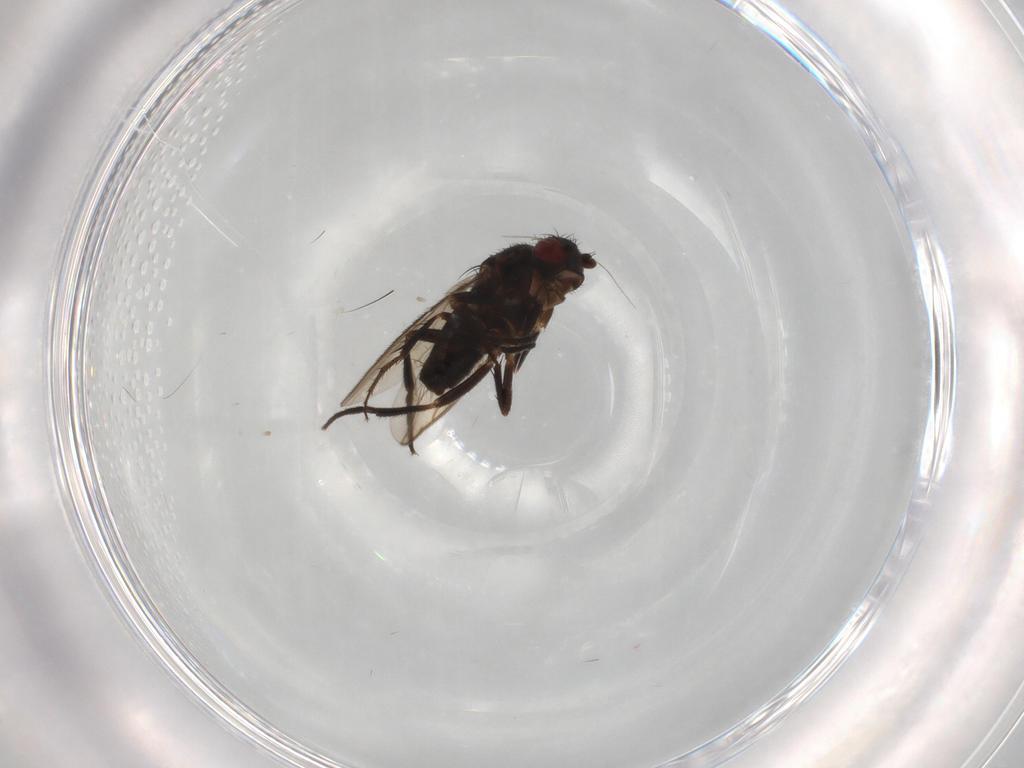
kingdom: Animalia
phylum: Arthropoda
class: Insecta
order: Diptera
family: Sphaeroceridae
